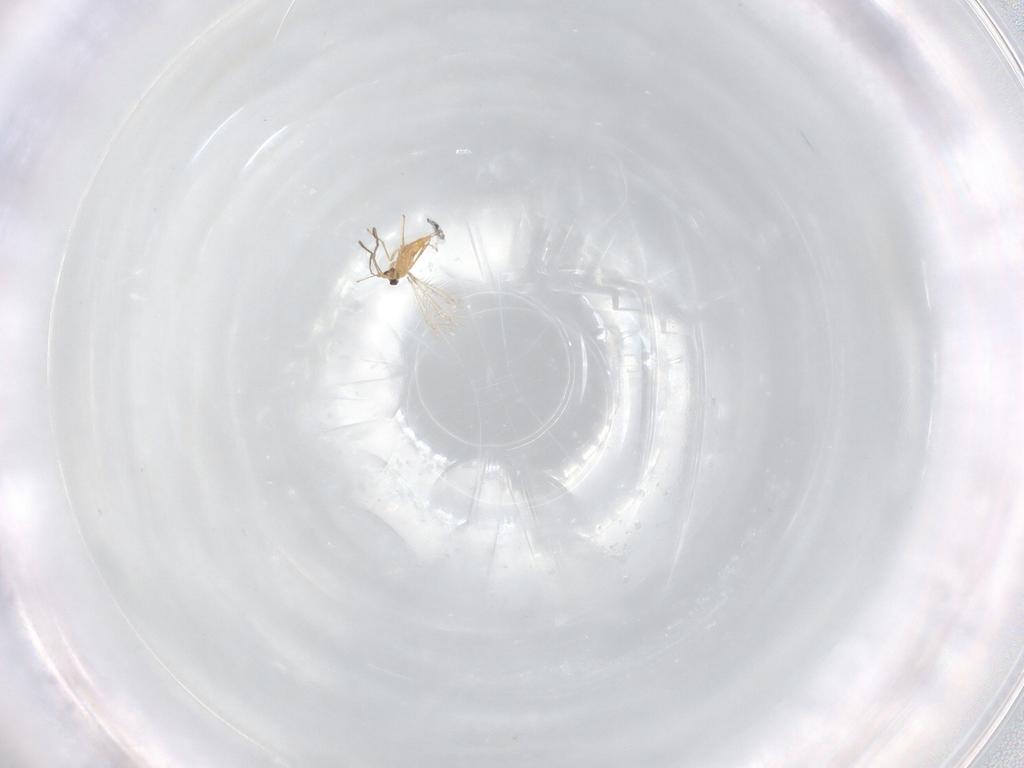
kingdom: Animalia
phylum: Arthropoda
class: Insecta
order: Hymenoptera
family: Mymaridae
